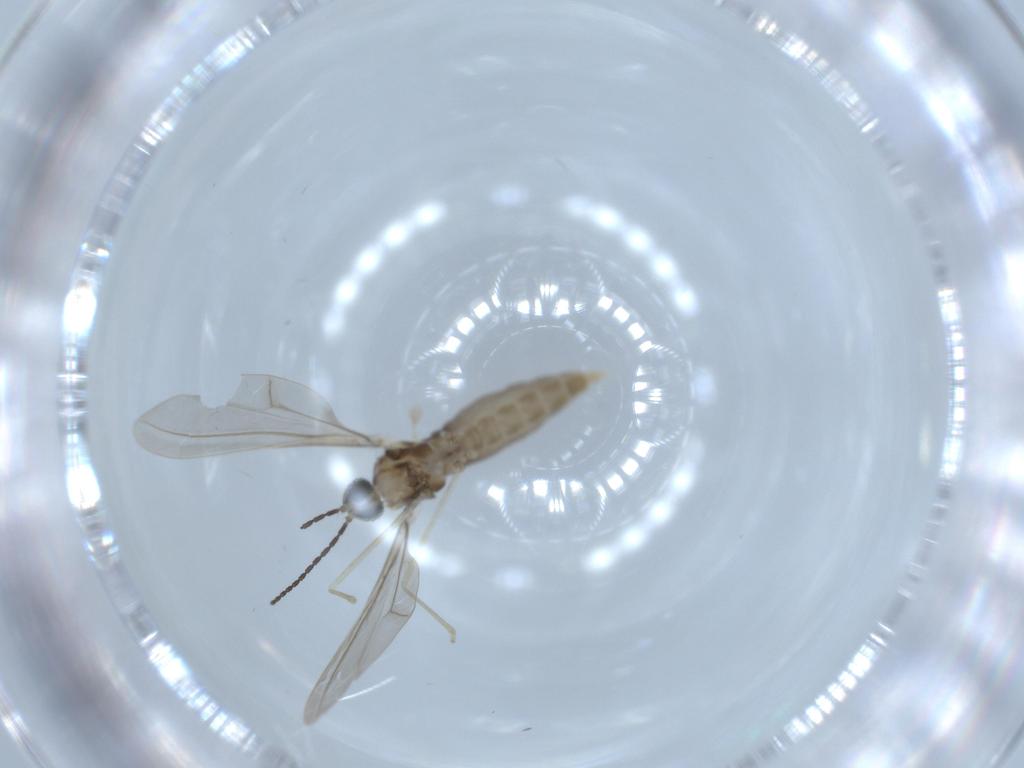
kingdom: Animalia
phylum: Arthropoda
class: Insecta
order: Diptera
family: Cecidomyiidae
